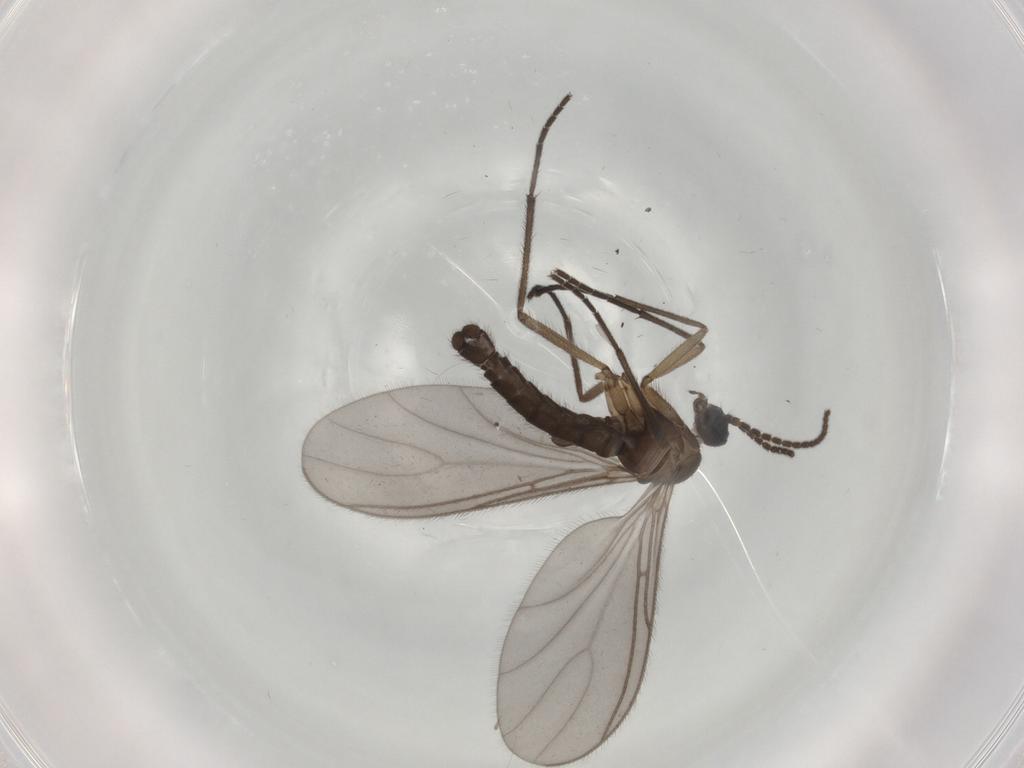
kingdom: Animalia
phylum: Arthropoda
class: Insecta
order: Diptera
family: Sciaridae
